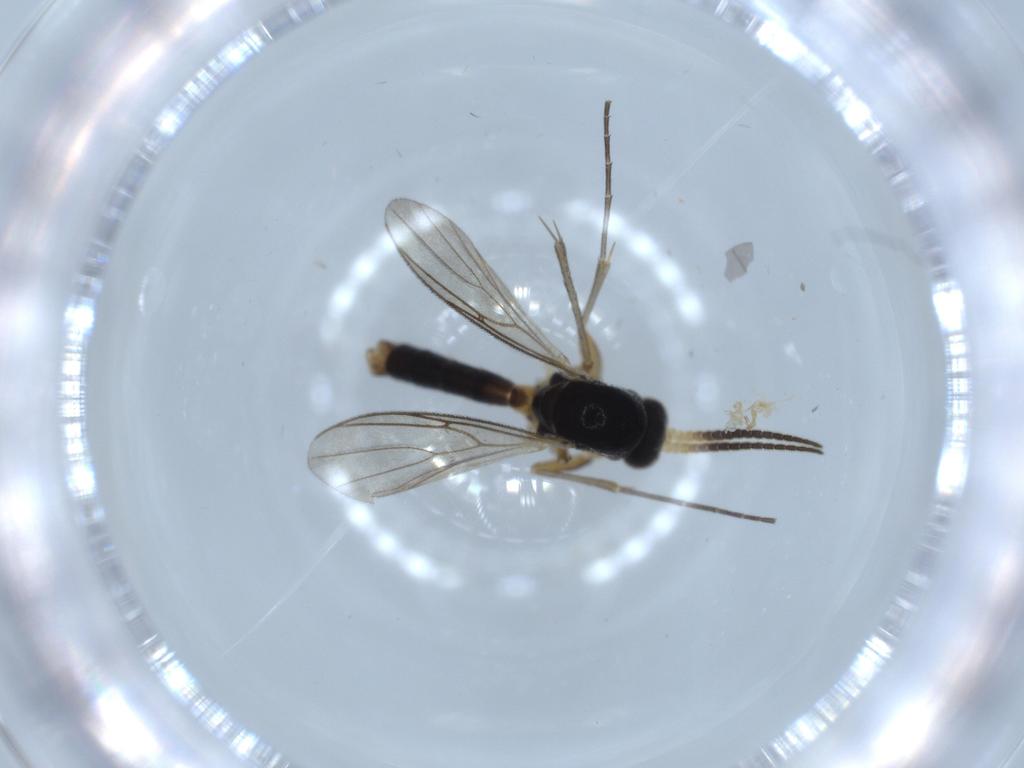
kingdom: Animalia
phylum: Arthropoda
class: Insecta
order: Diptera
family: Mycetophilidae
